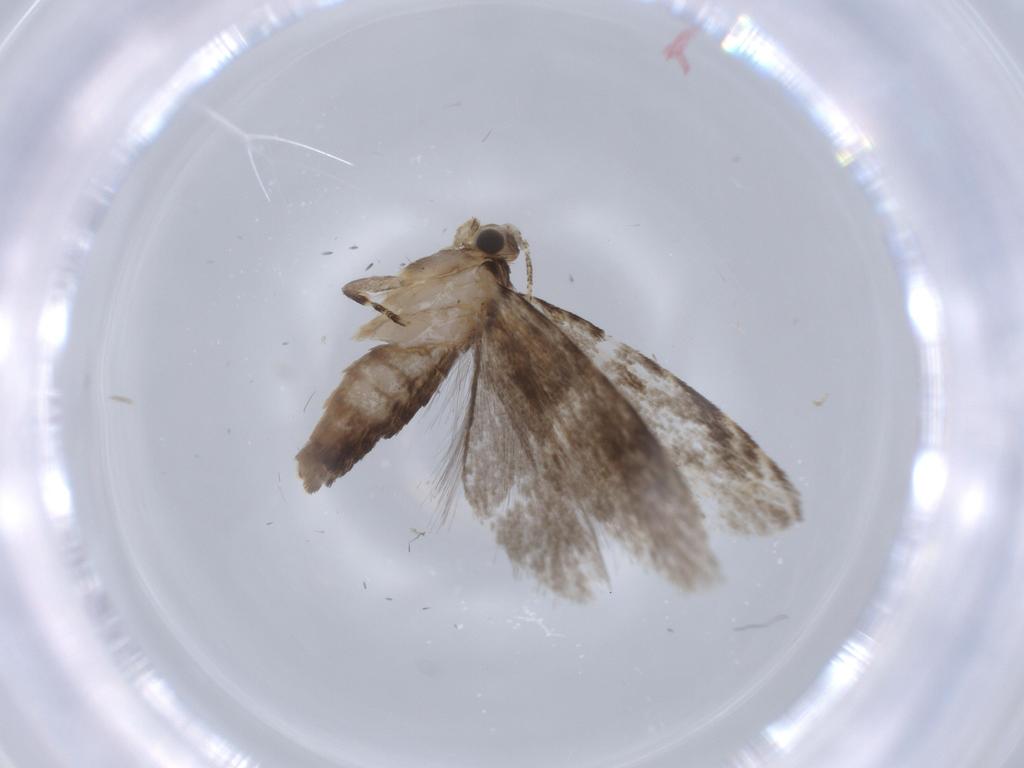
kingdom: Animalia
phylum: Arthropoda
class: Insecta
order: Lepidoptera
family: Tineidae
